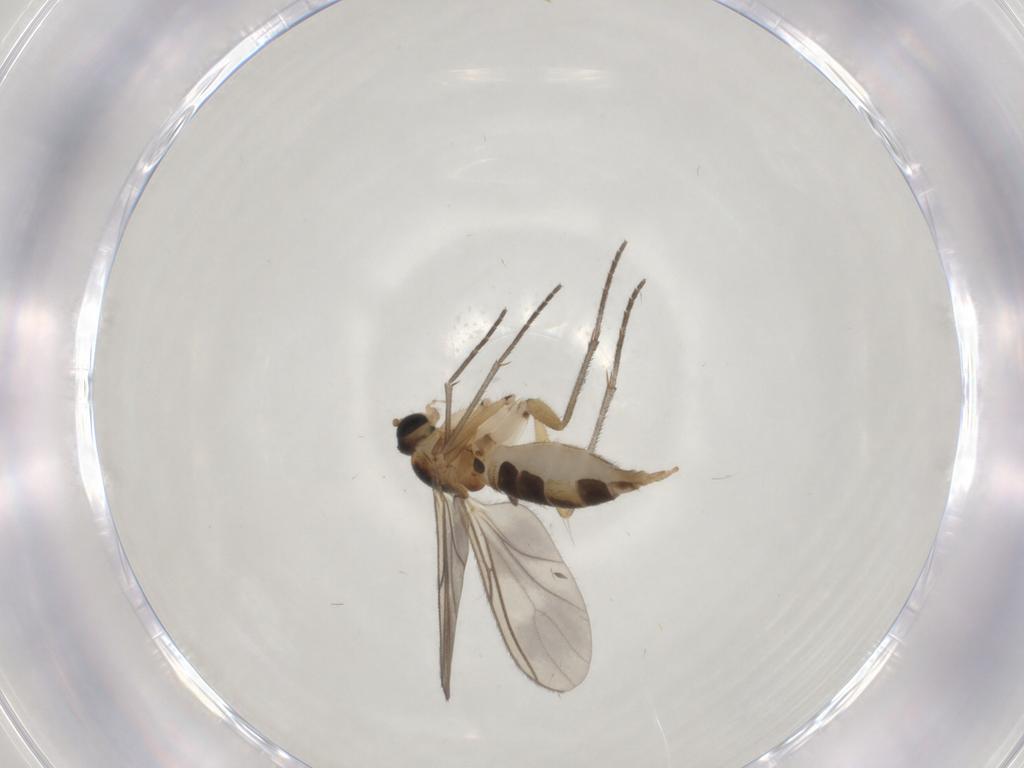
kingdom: Animalia
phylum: Arthropoda
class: Insecta
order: Diptera
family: Sciaridae
